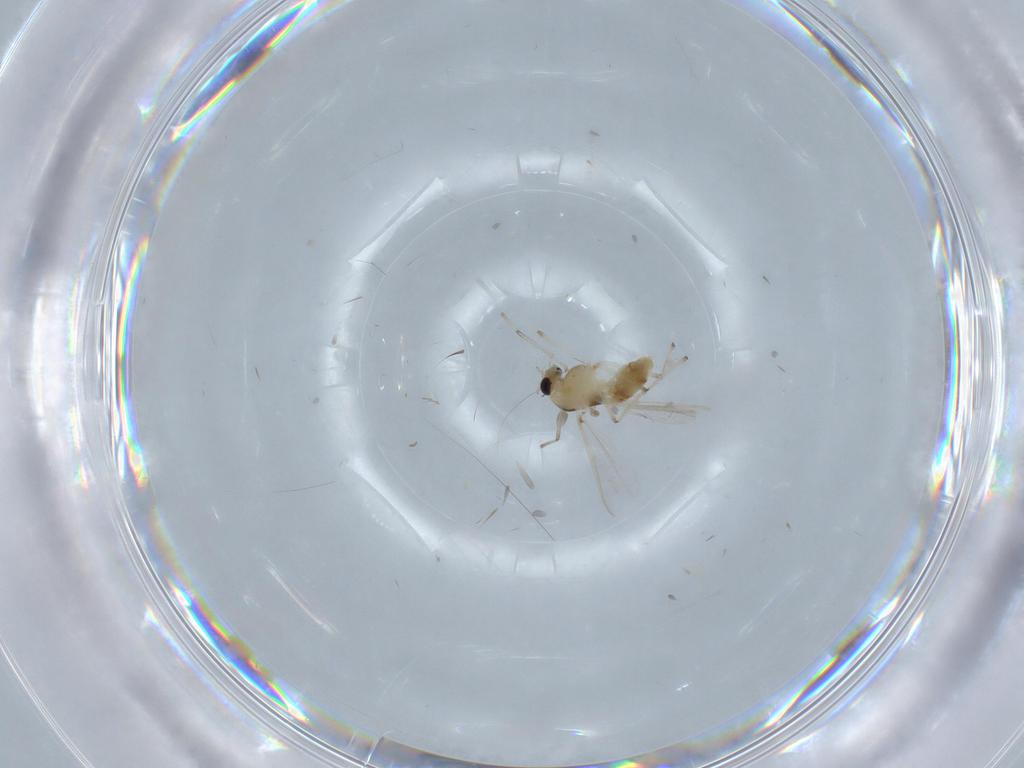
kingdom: Animalia
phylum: Arthropoda
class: Insecta
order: Diptera
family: Chironomidae
